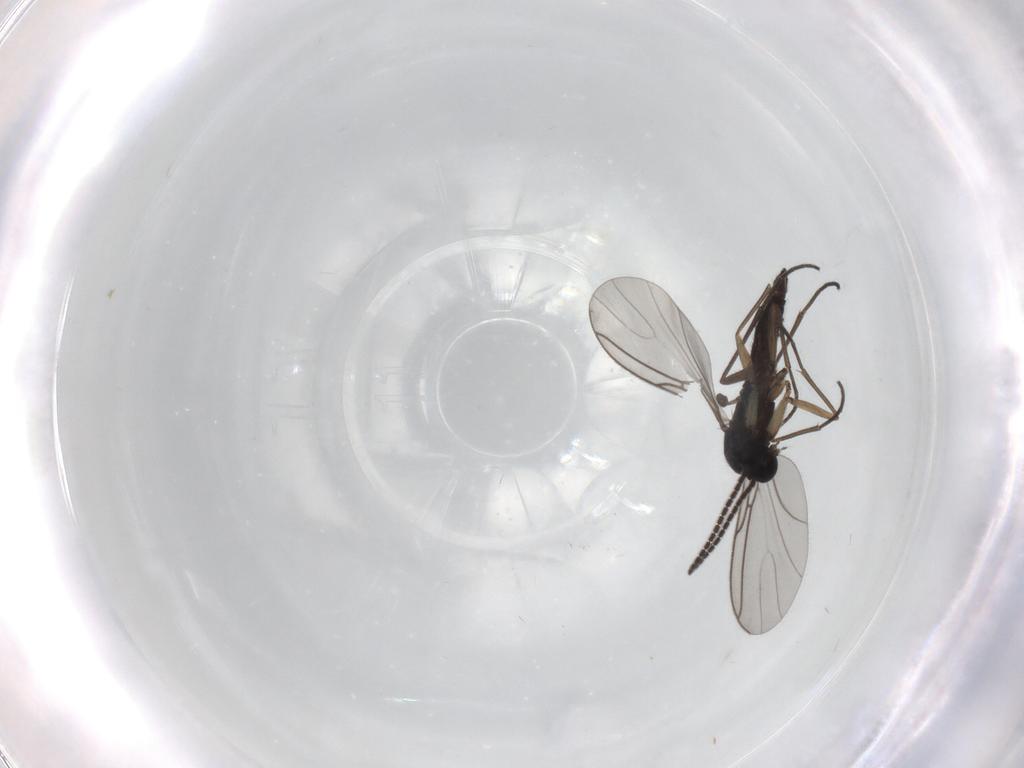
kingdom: Animalia
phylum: Arthropoda
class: Insecta
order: Diptera
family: Sciaridae
